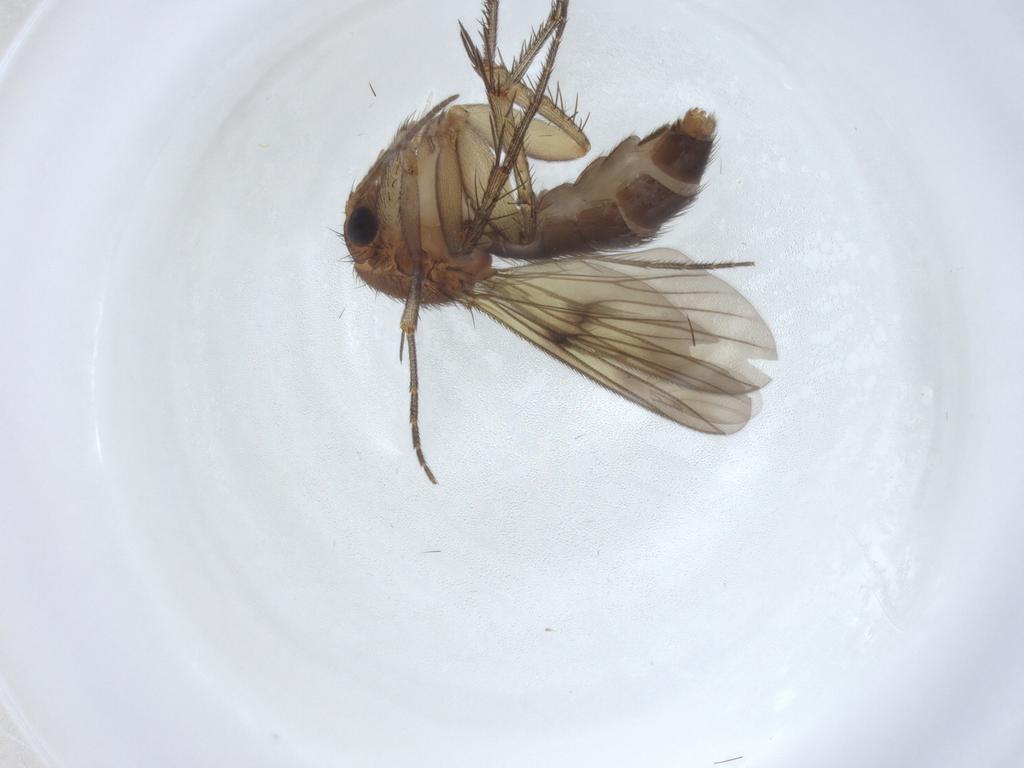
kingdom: Animalia
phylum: Arthropoda
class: Insecta
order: Diptera
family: Mycetophilidae
